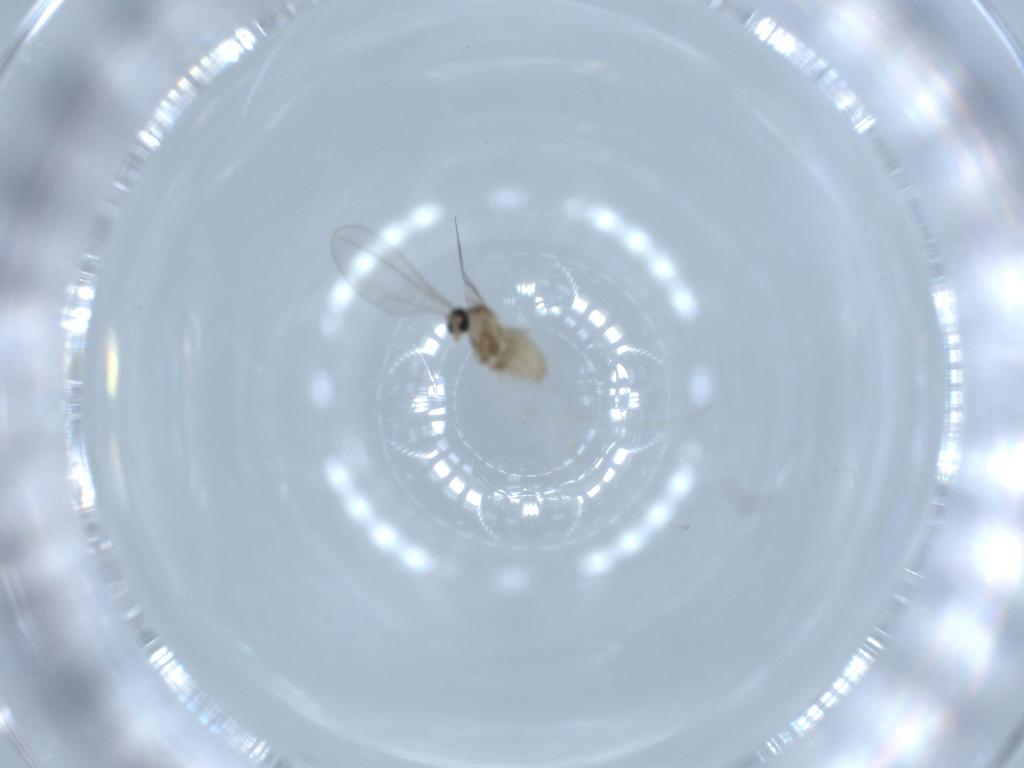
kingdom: Animalia
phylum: Arthropoda
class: Insecta
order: Diptera
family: Cecidomyiidae
